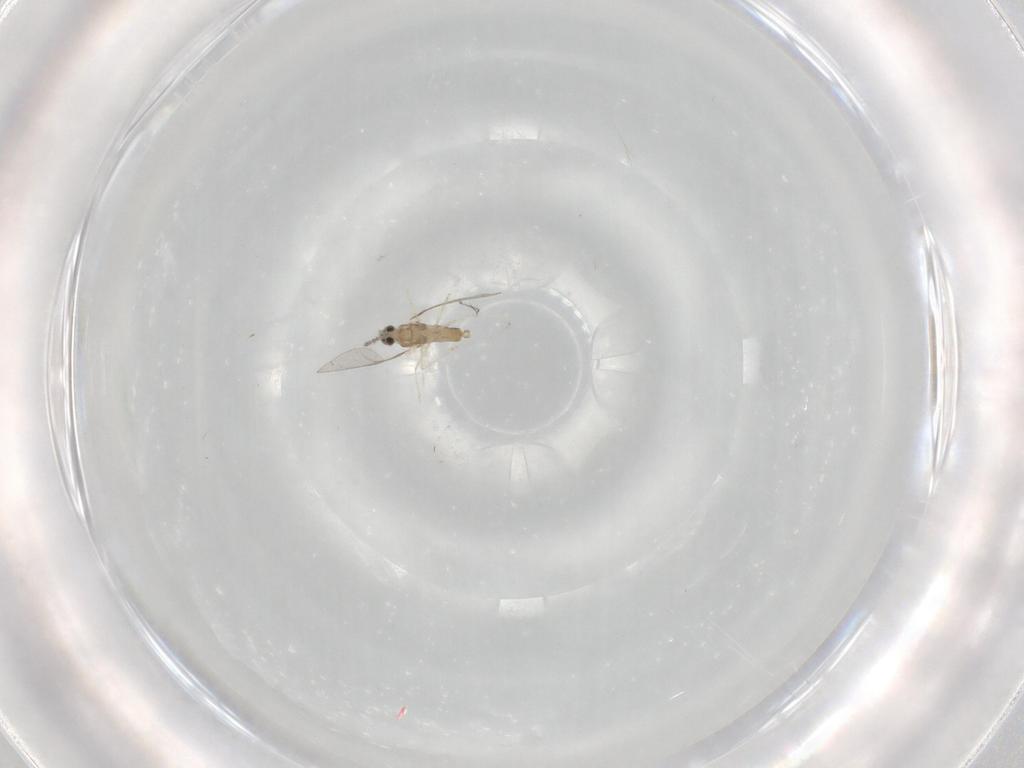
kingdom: Animalia
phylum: Arthropoda
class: Insecta
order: Diptera
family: Cecidomyiidae
